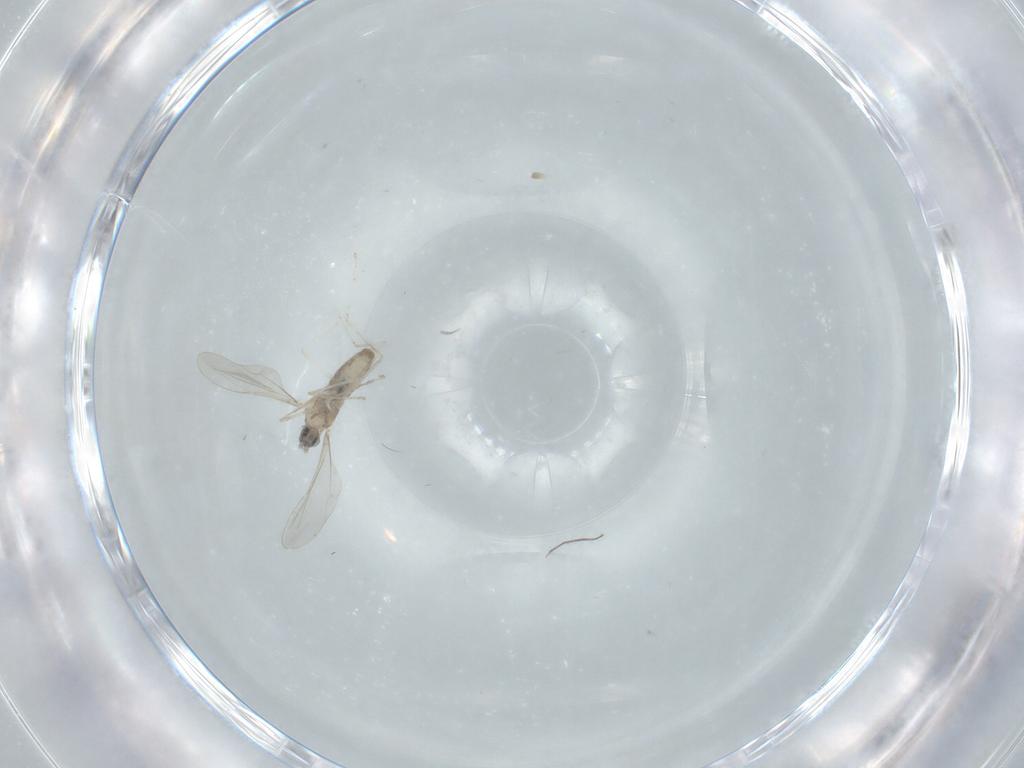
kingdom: Animalia
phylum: Arthropoda
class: Insecta
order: Diptera
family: Cecidomyiidae
